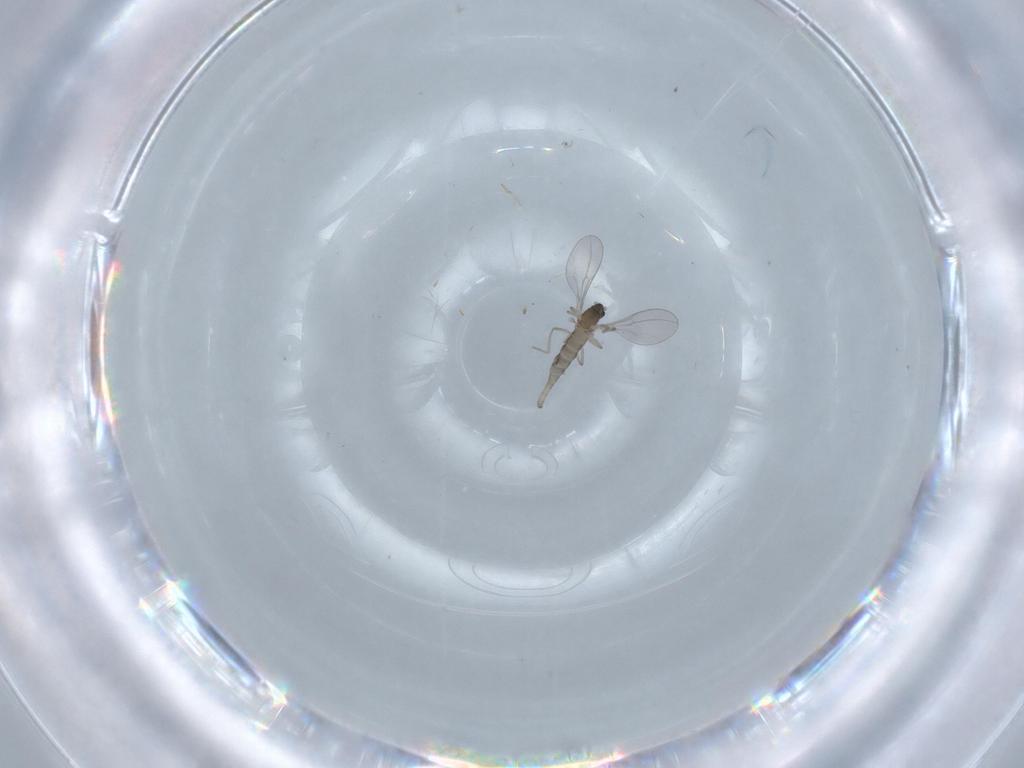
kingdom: Animalia
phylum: Arthropoda
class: Insecta
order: Diptera
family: Cecidomyiidae
